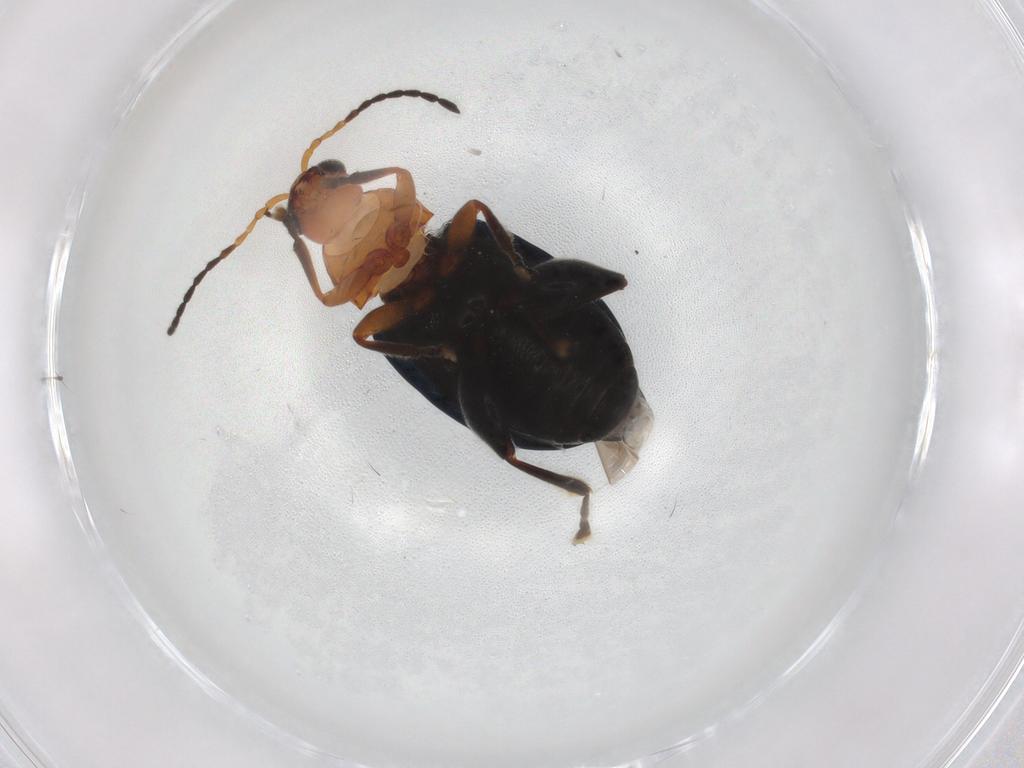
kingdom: Animalia
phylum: Arthropoda
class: Insecta
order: Coleoptera
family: Chrysomelidae
